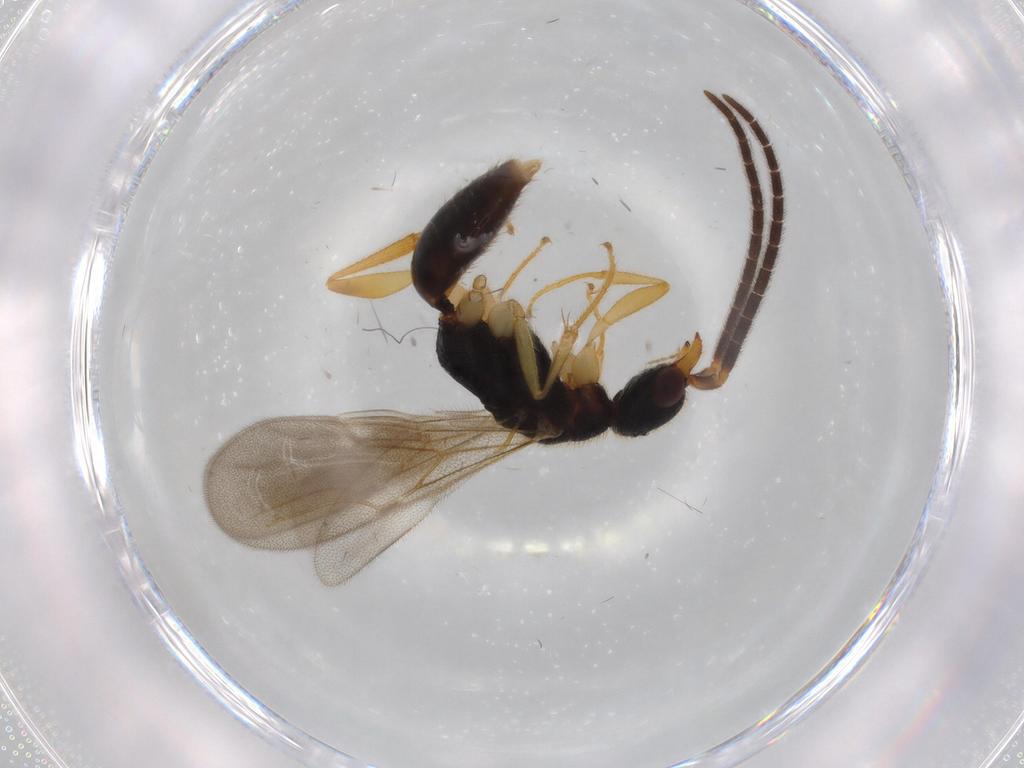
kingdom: Animalia
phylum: Arthropoda
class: Insecta
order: Hymenoptera
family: Bethylidae
